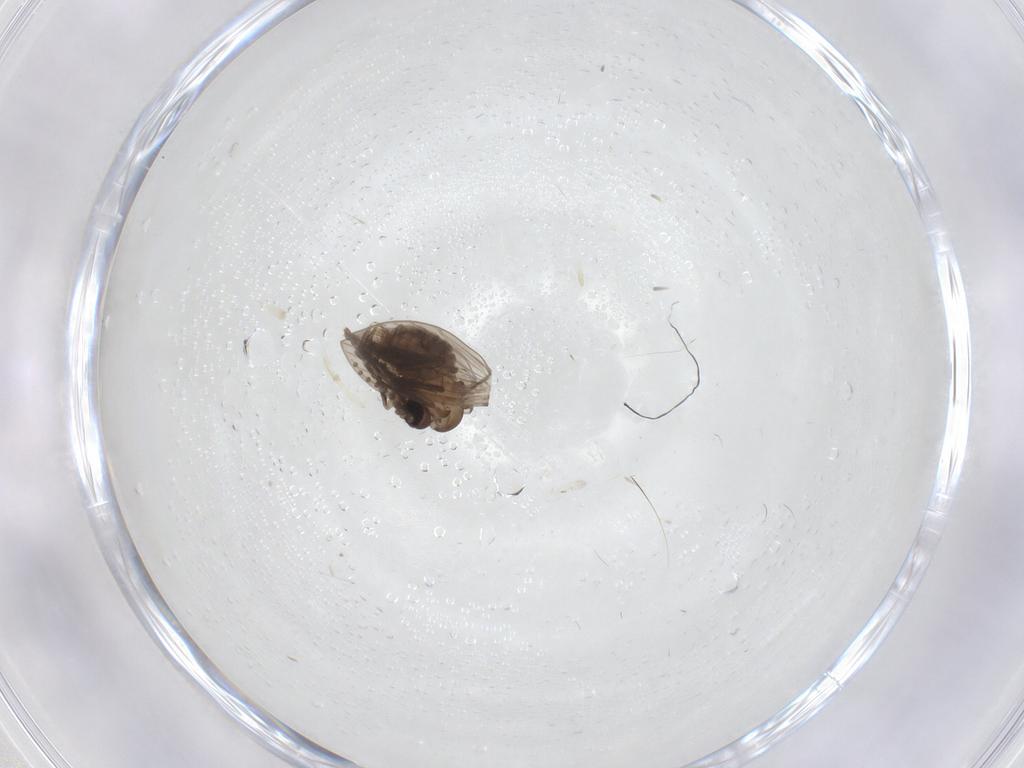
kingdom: Animalia
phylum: Arthropoda
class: Insecta
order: Diptera
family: Psychodidae
